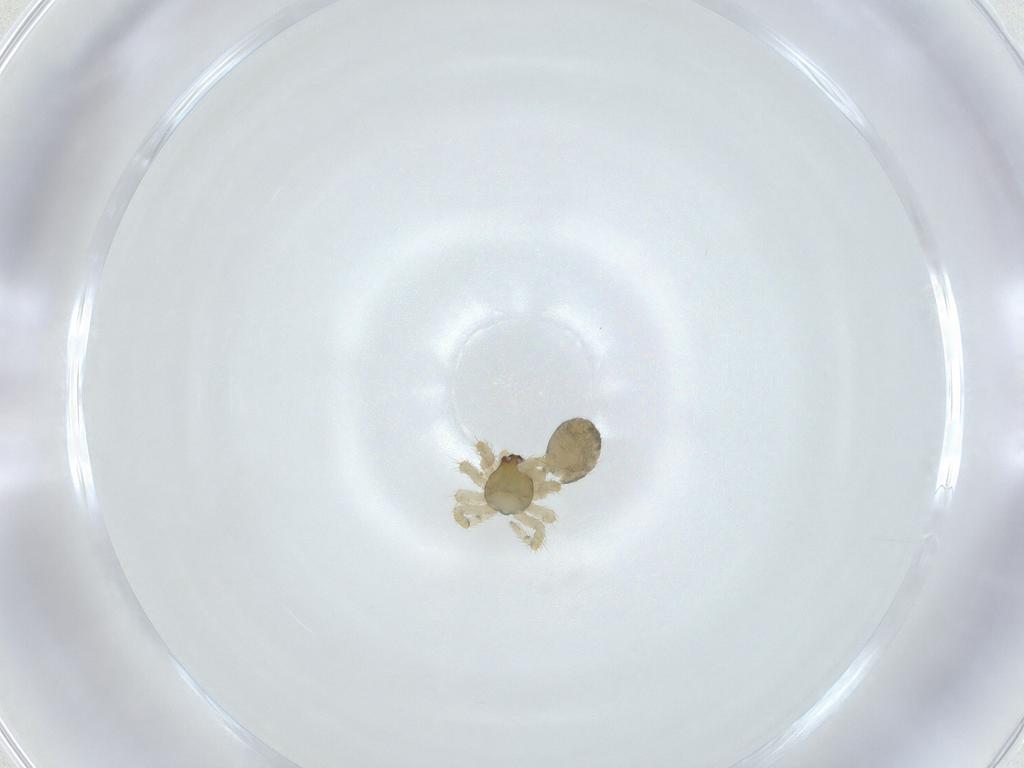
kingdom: Animalia
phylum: Arthropoda
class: Arachnida
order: Araneae
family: Theridiidae
